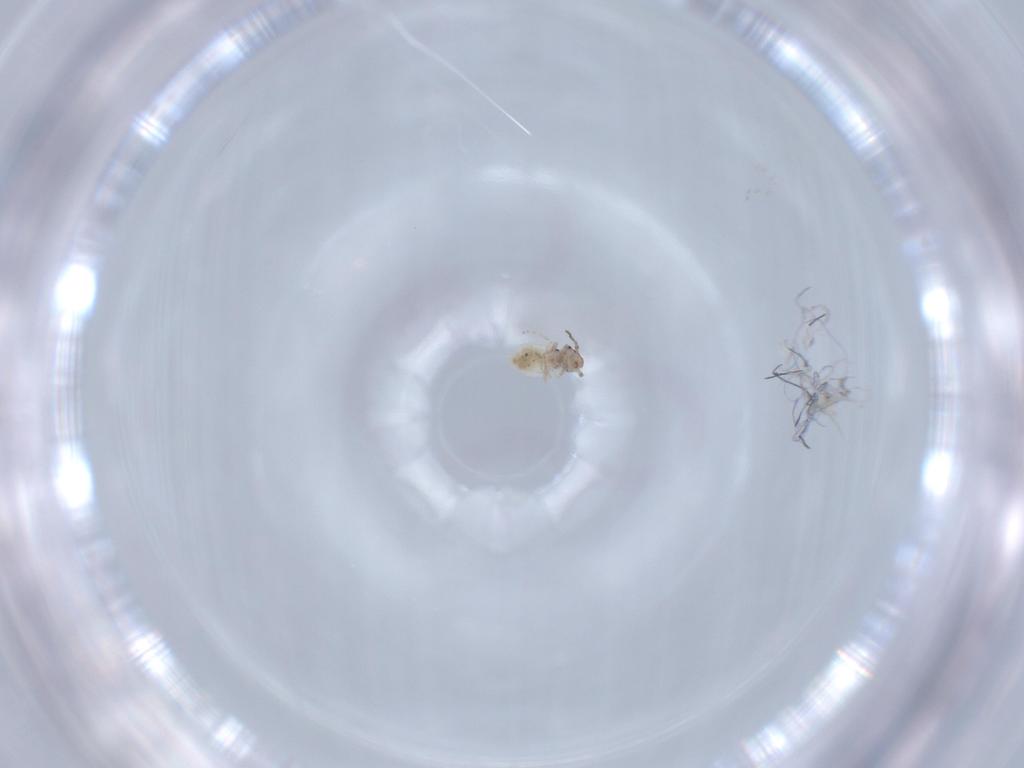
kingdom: Animalia
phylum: Arthropoda
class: Insecta
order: Psocodea
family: Lepidopsocidae
